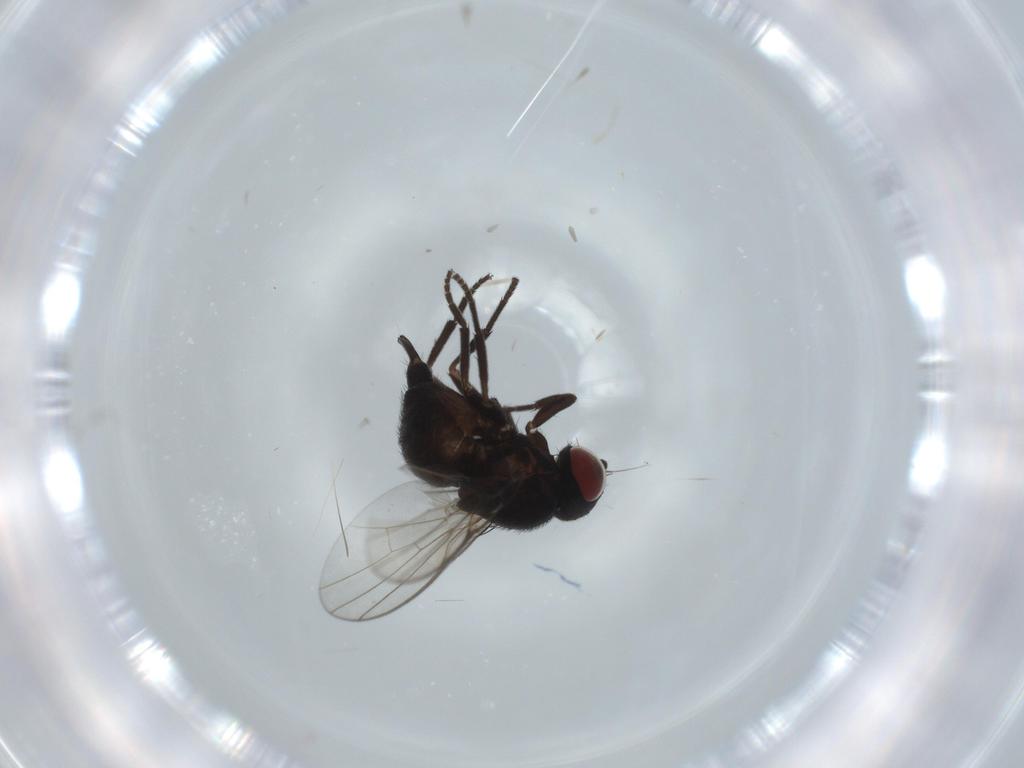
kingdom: Animalia
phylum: Arthropoda
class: Insecta
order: Diptera
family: Agromyzidae
